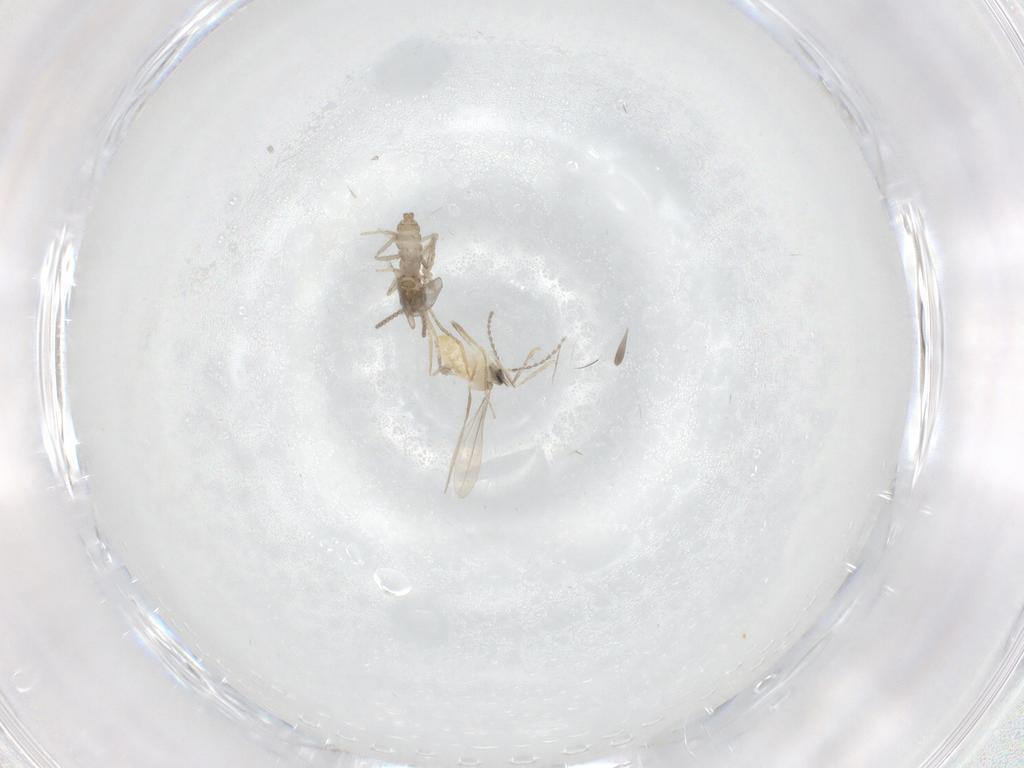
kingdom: Animalia
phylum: Arthropoda
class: Insecta
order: Diptera
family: Cecidomyiidae
